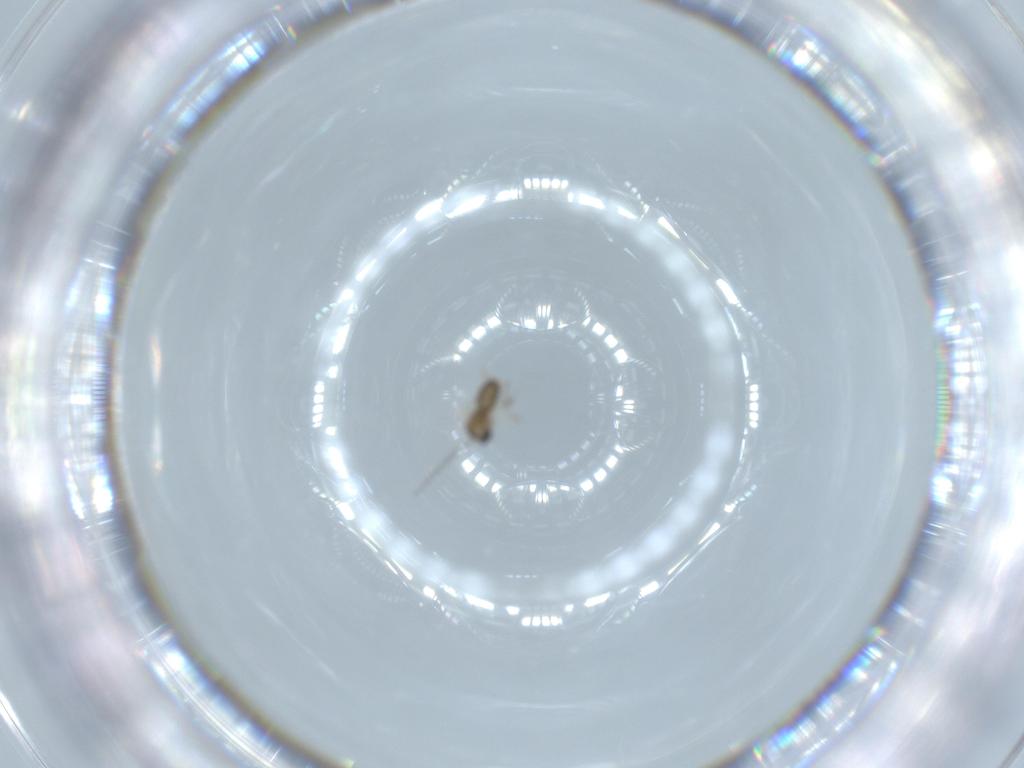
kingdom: Animalia
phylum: Arthropoda
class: Insecta
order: Diptera
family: Cecidomyiidae
